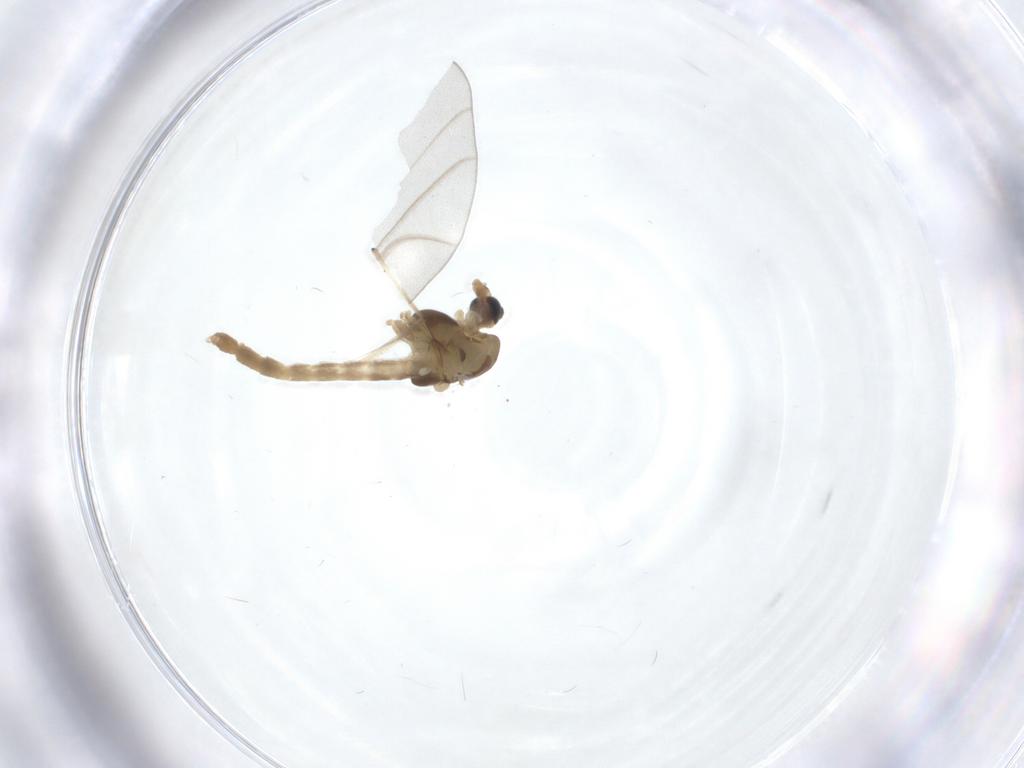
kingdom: Animalia
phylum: Arthropoda
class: Insecta
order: Diptera
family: Chironomidae
